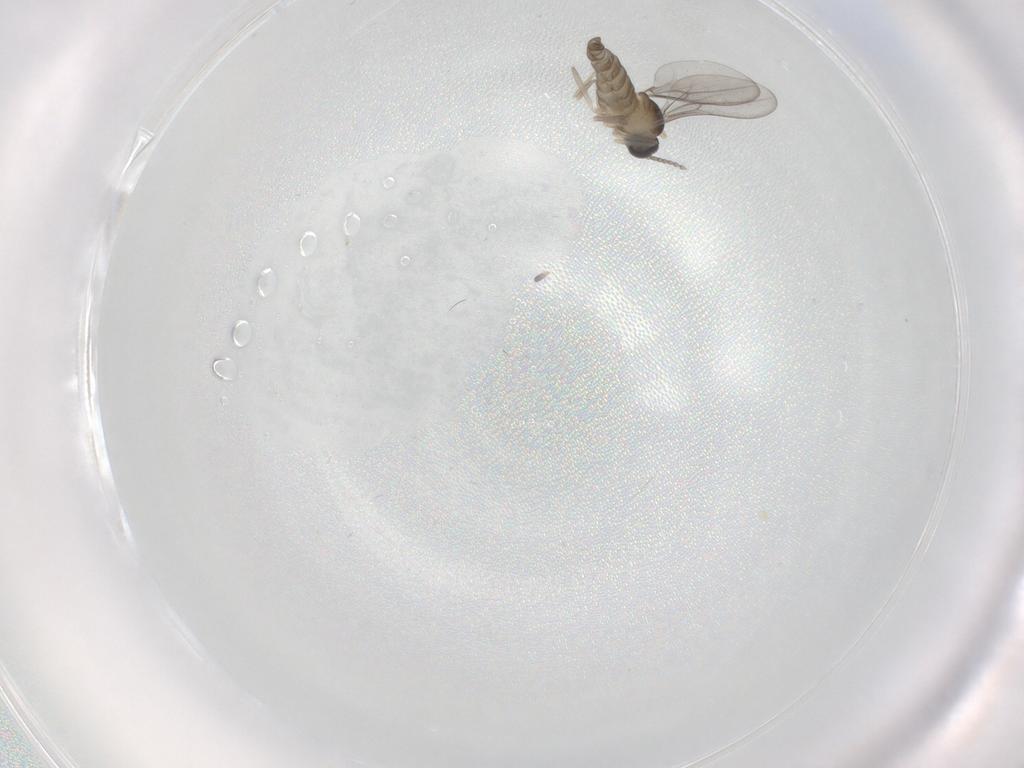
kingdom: Animalia
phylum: Arthropoda
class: Insecta
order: Diptera
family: Cecidomyiidae
